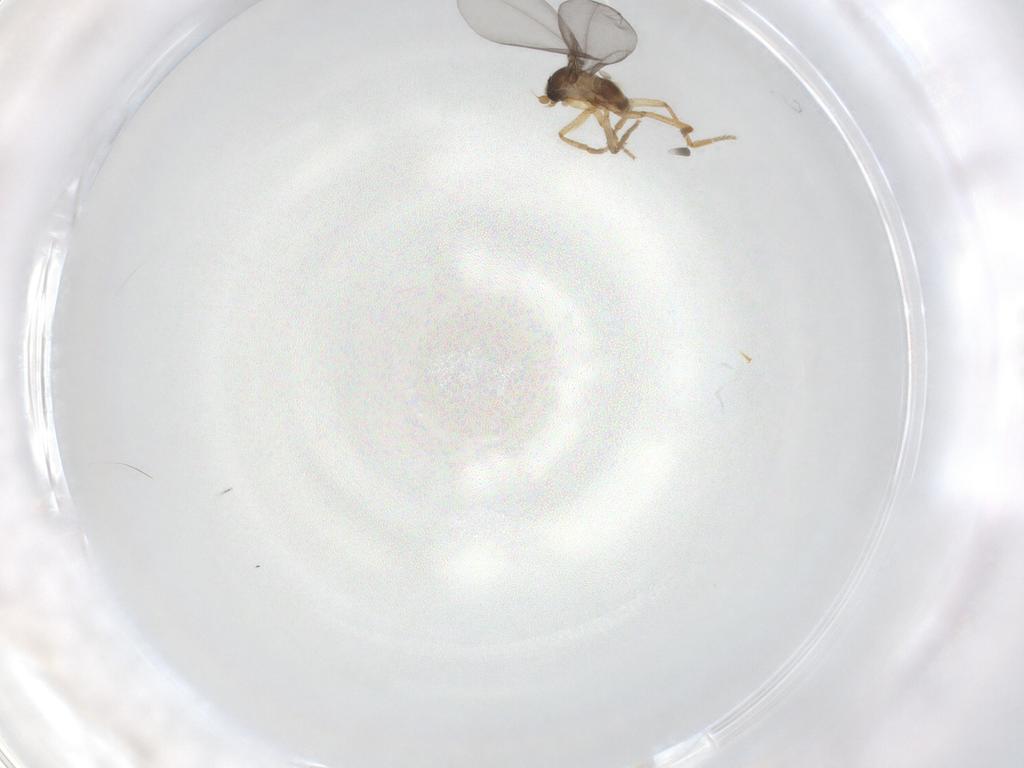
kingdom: Animalia
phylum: Arthropoda
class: Insecta
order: Diptera
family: Phoridae
